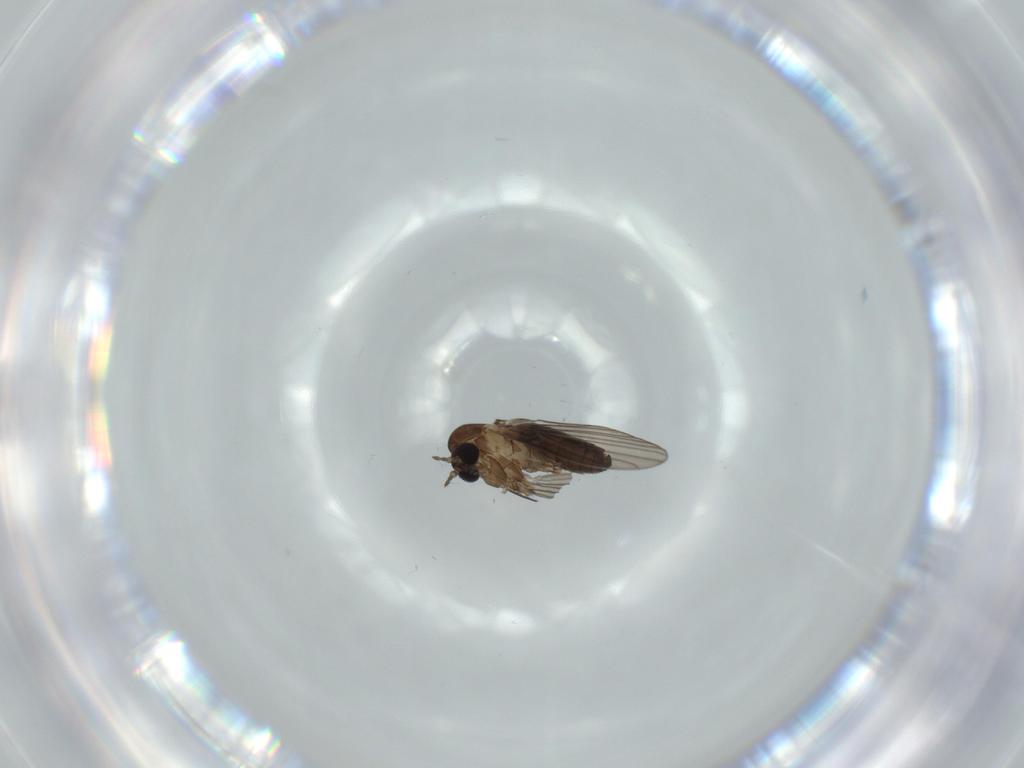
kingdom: Animalia
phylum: Arthropoda
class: Insecta
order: Diptera
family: Psychodidae
